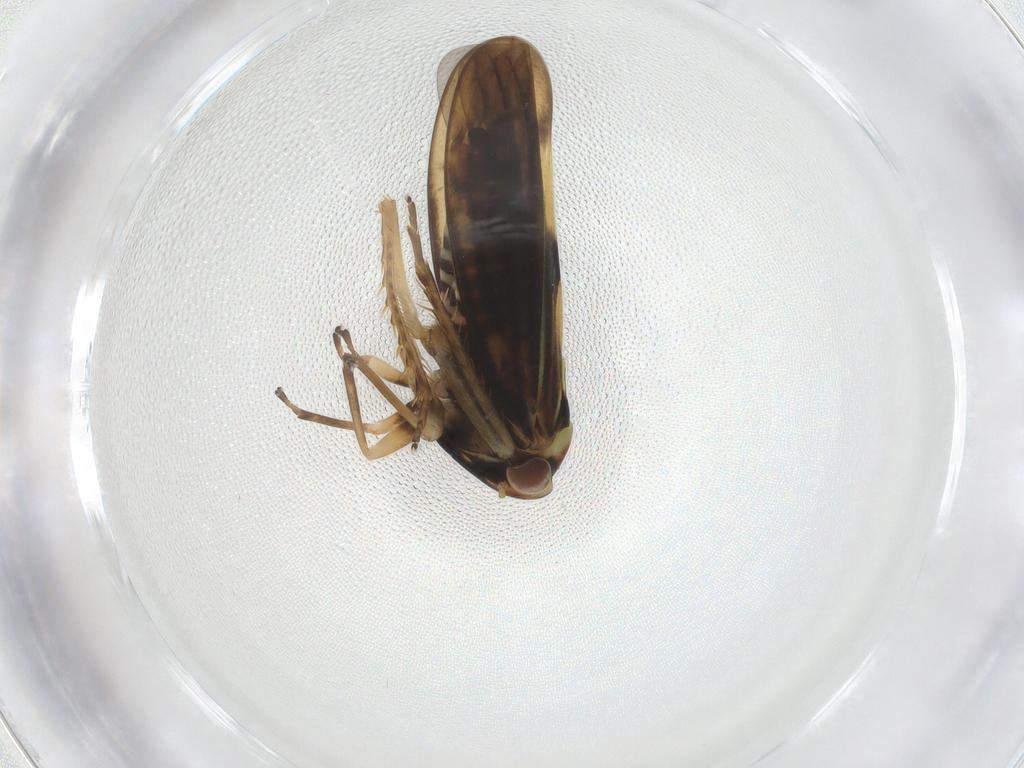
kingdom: Animalia
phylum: Arthropoda
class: Insecta
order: Hemiptera
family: Cicadellidae
